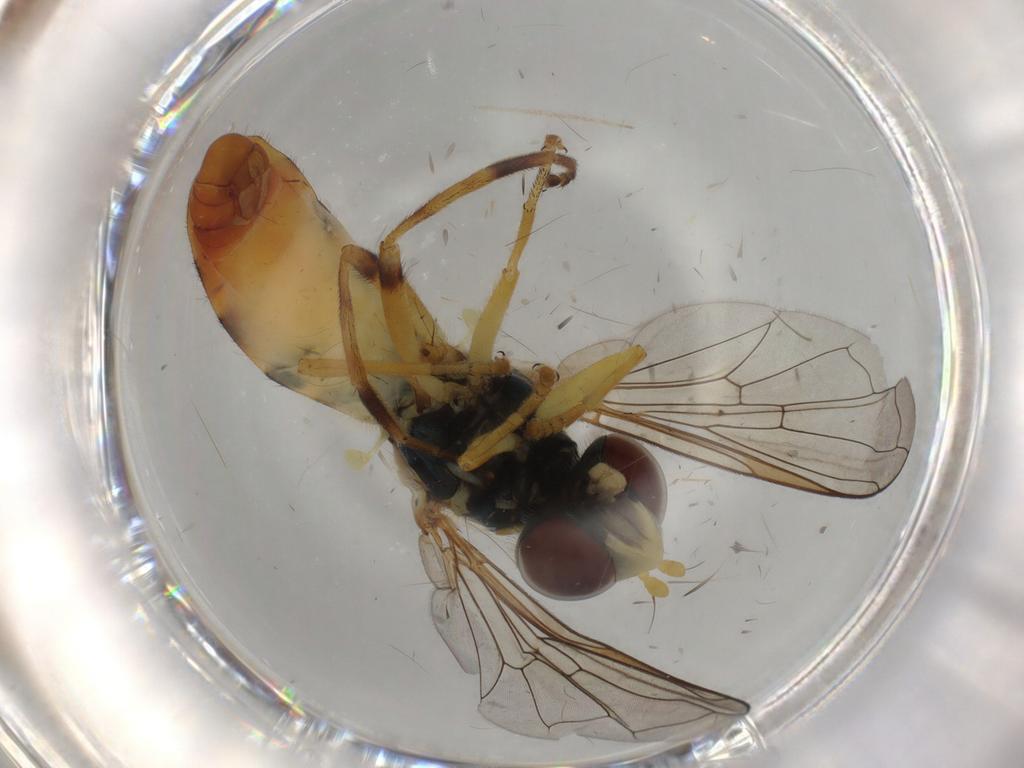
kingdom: Animalia
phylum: Arthropoda
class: Insecta
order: Diptera
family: Syrphidae
